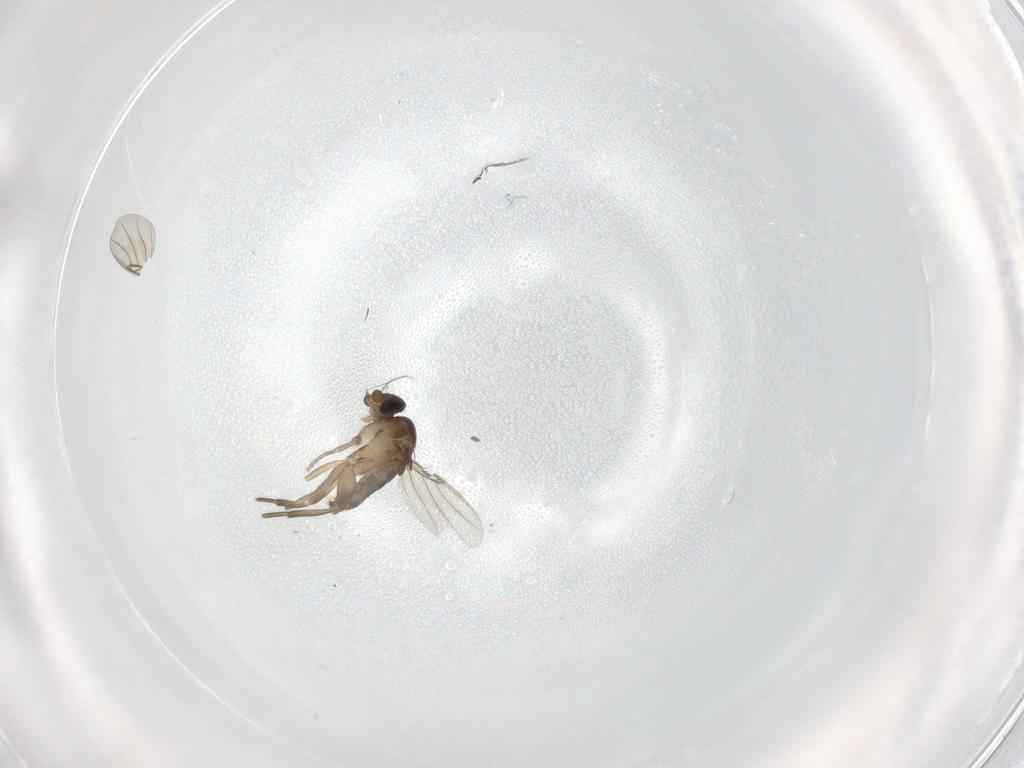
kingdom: Animalia
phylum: Arthropoda
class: Insecta
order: Diptera
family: Phoridae
